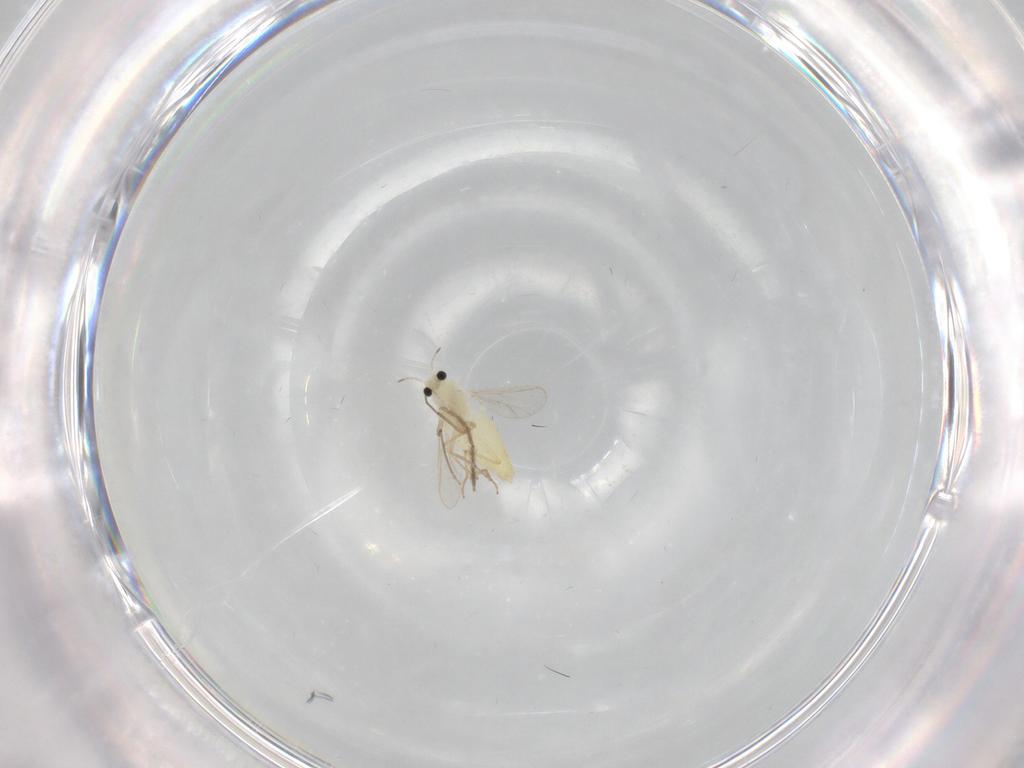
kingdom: Animalia
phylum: Arthropoda
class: Insecta
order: Diptera
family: Chironomidae
